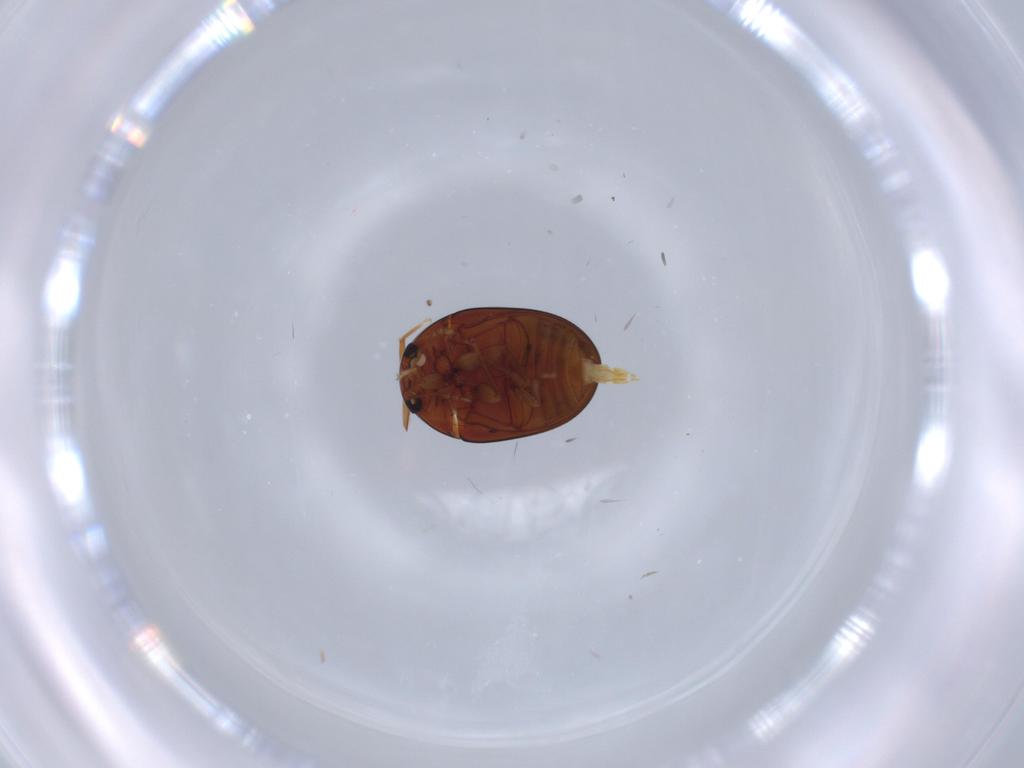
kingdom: Animalia
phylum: Arthropoda
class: Insecta
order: Coleoptera
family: Phalacridae
